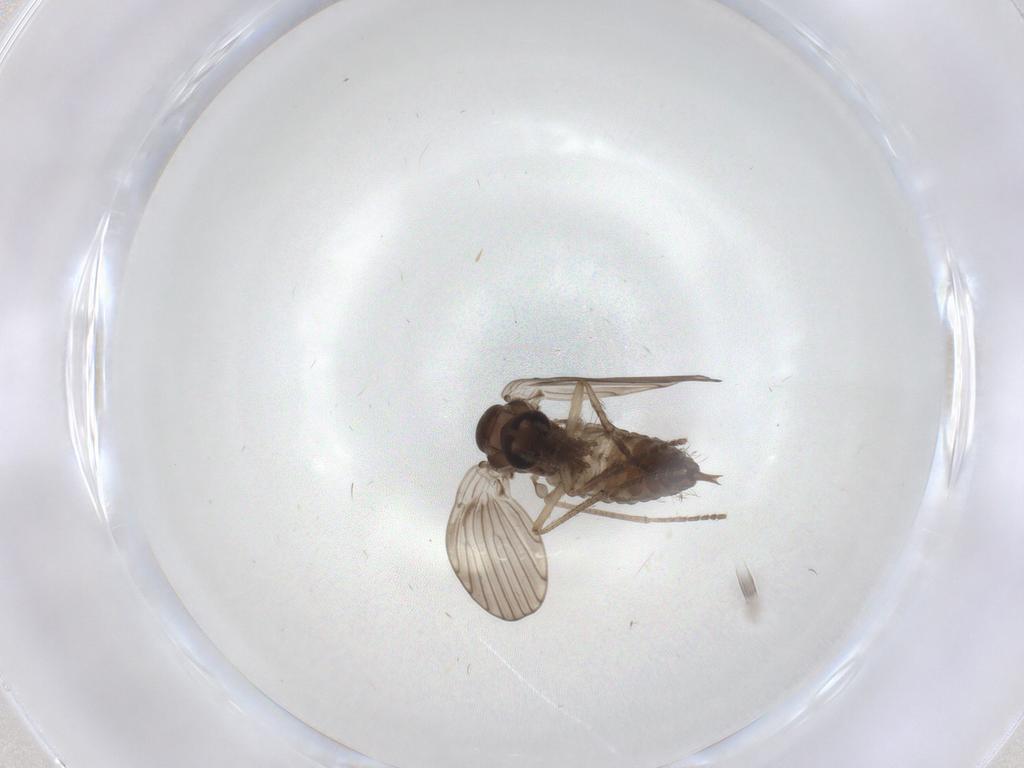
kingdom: Animalia
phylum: Arthropoda
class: Insecta
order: Diptera
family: Psychodidae
